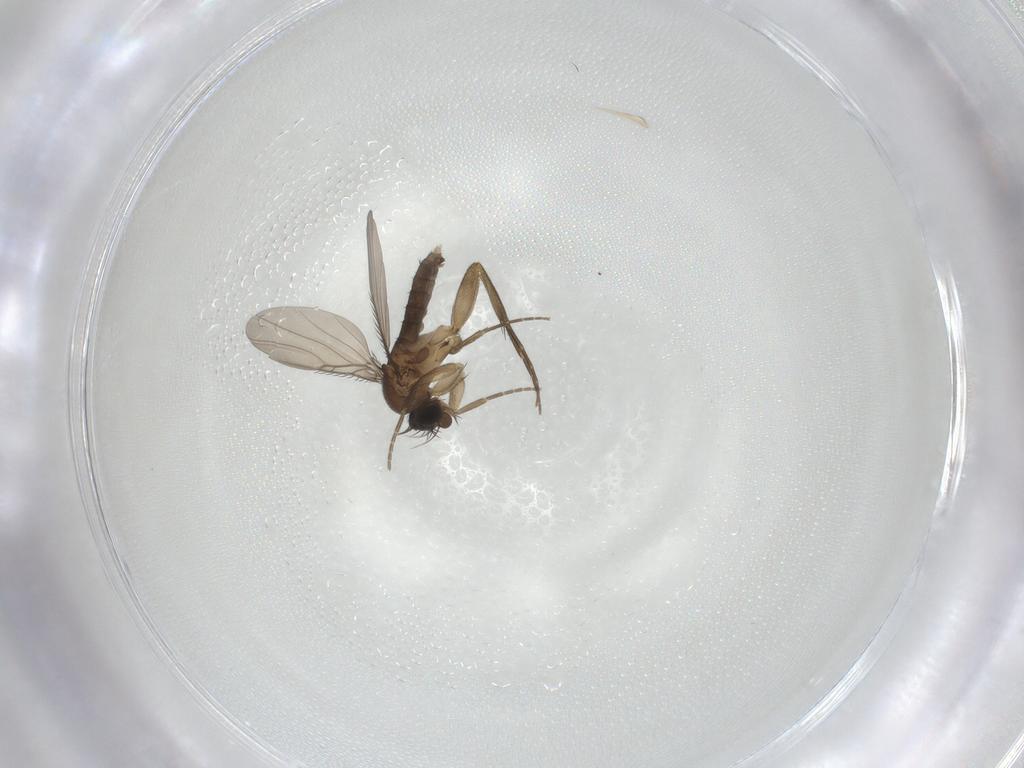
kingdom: Animalia
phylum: Arthropoda
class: Insecta
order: Diptera
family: Phoridae
